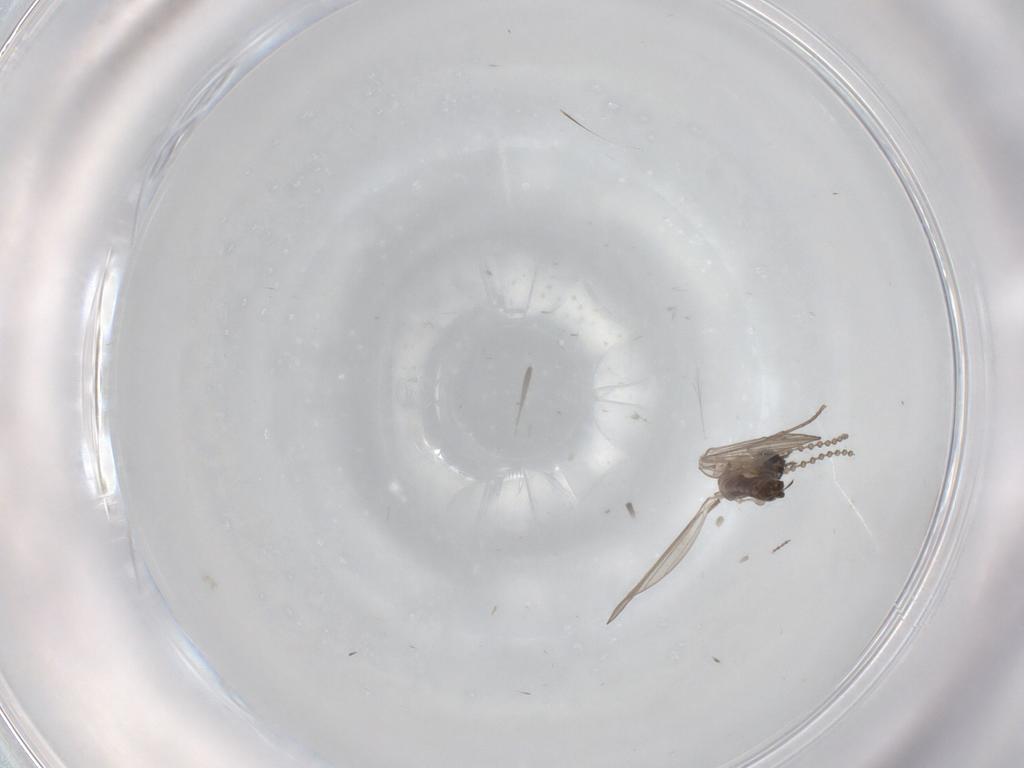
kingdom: Animalia
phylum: Arthropoda
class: Insecta
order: Diptera
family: Psychodidae
